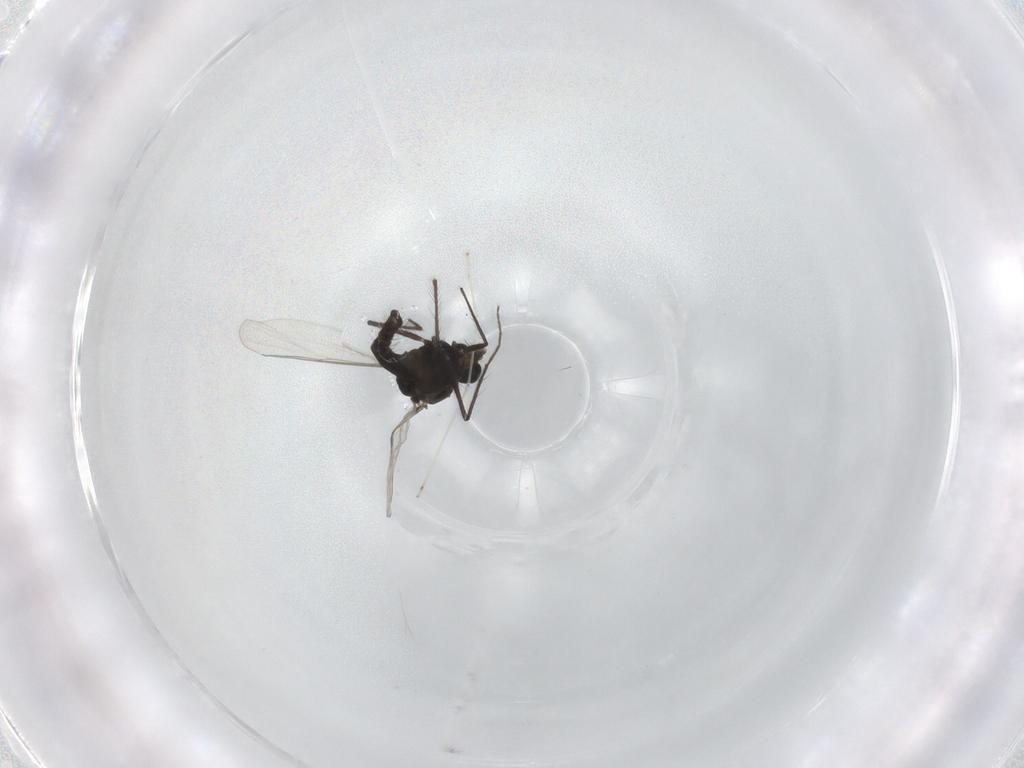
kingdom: Animalia
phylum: Arthropoda
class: Insecta
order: Diptera
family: Chironomidae
